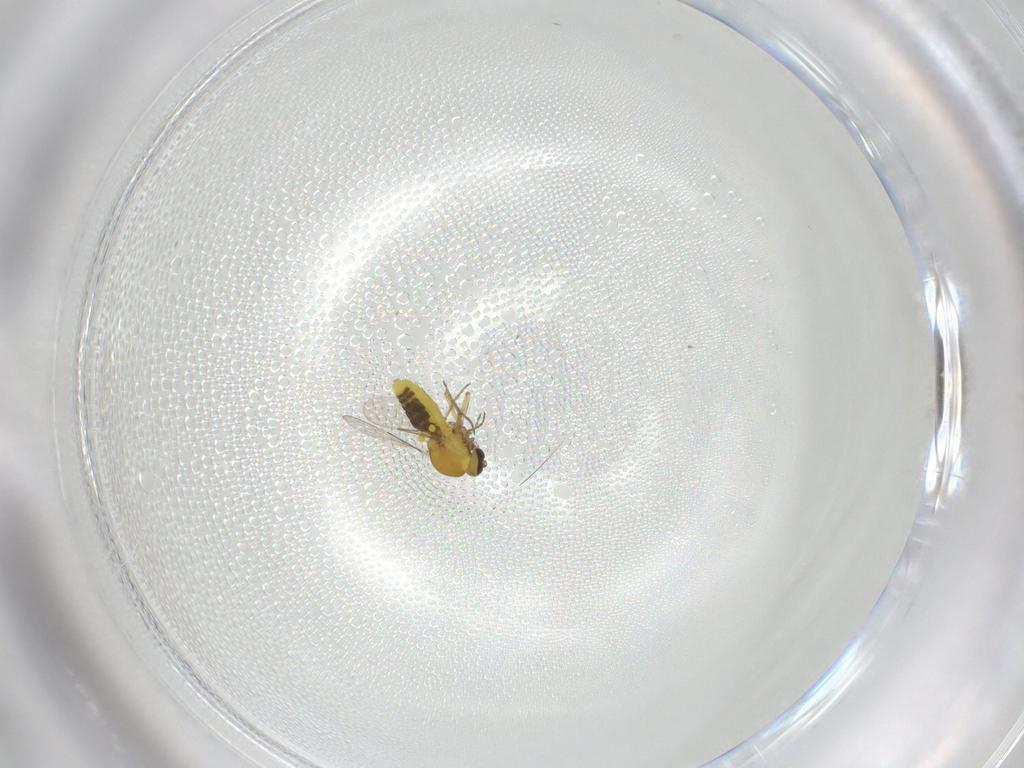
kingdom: Animalia
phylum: Arthropoda
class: Insecta
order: Diptera
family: Cecidomyiidae
